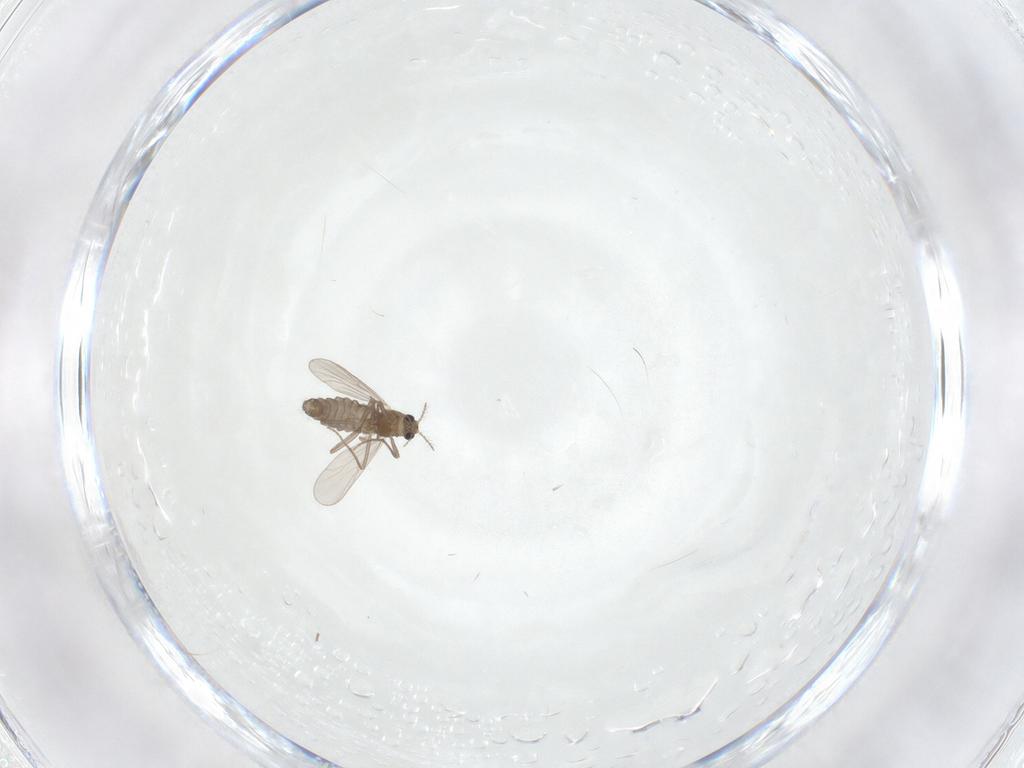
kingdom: Animalia
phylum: Arthropoda
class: Insecta
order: Diptera
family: Chironomidae
